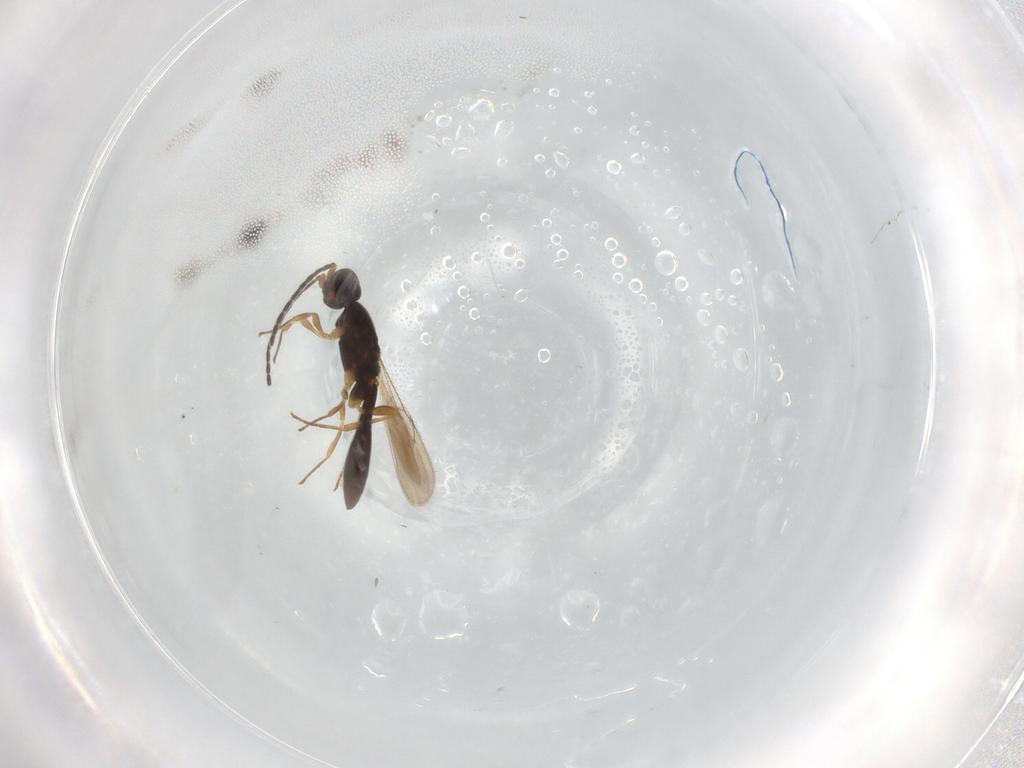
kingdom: Animalia
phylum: Arthropoda
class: Insecta
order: Hymenoptera
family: Scelionidae
